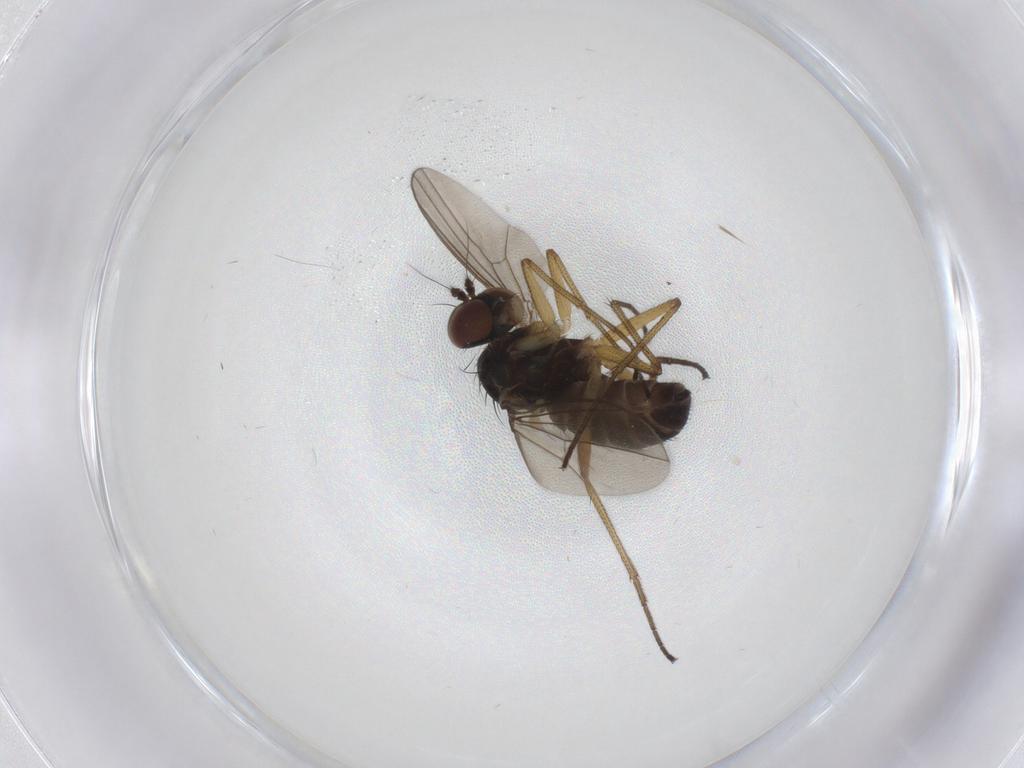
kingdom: Animalia
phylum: Arthropoda
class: Insecta
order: Diptera
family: Dolichopodidae
